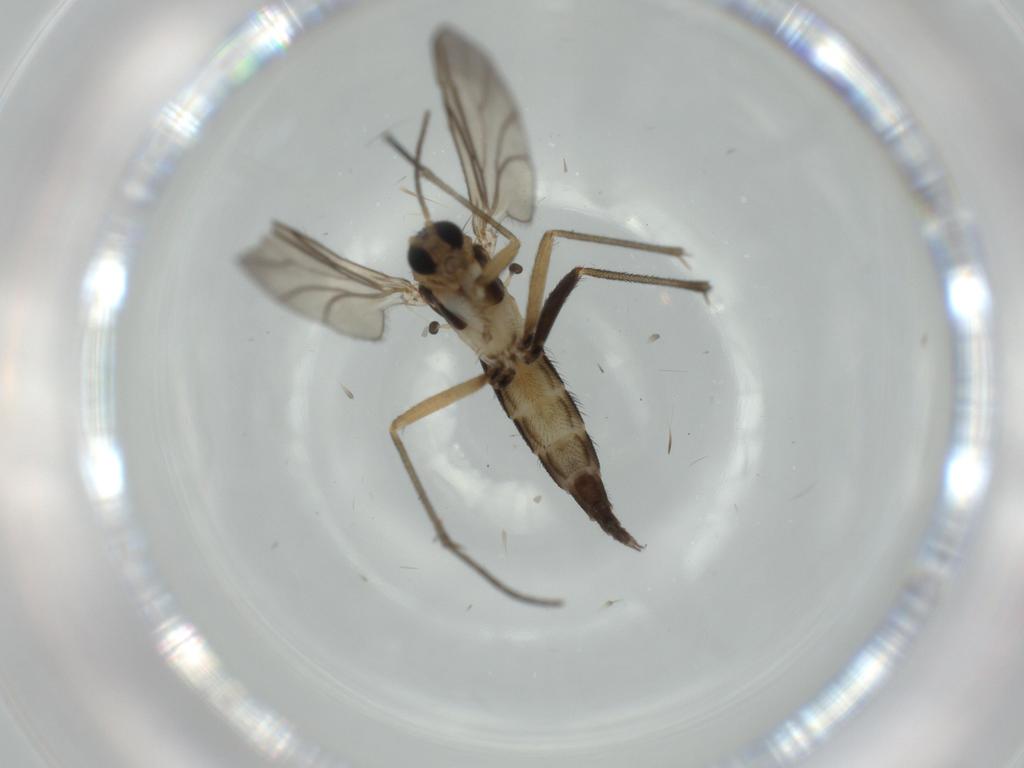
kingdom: Animalia
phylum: Arthropoda
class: Insecta
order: Diptera
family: Sciaridae
